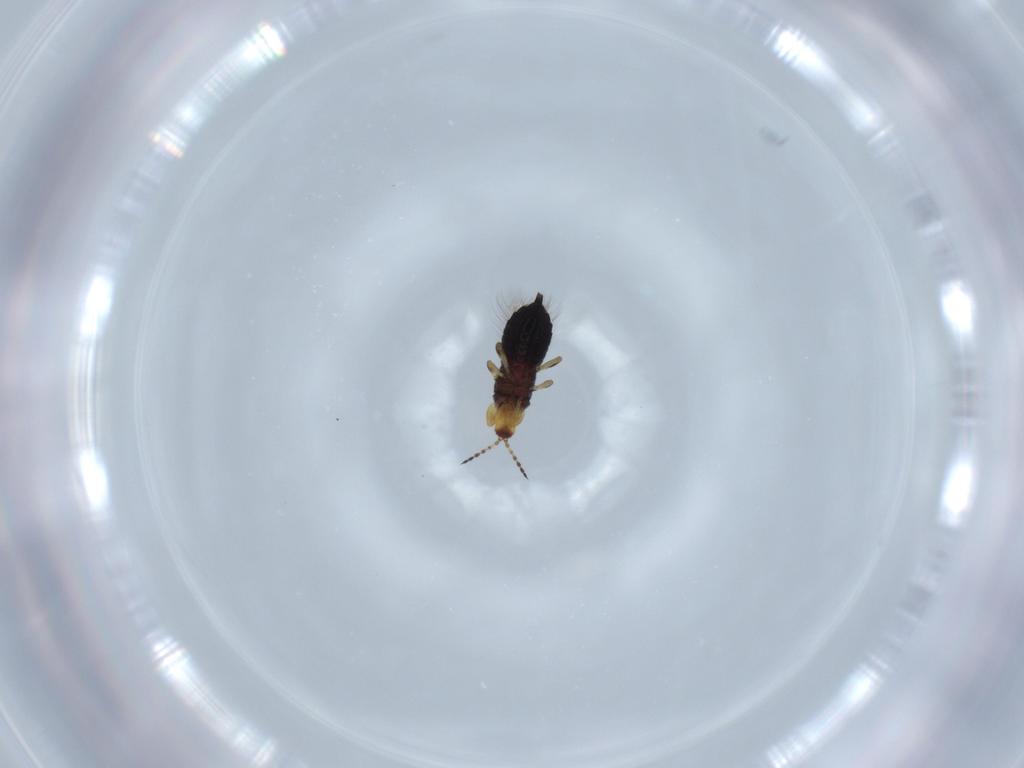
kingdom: Animalia
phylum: Arthropoda
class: Insecta
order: Thysanoptera
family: Phlaeothripidae
